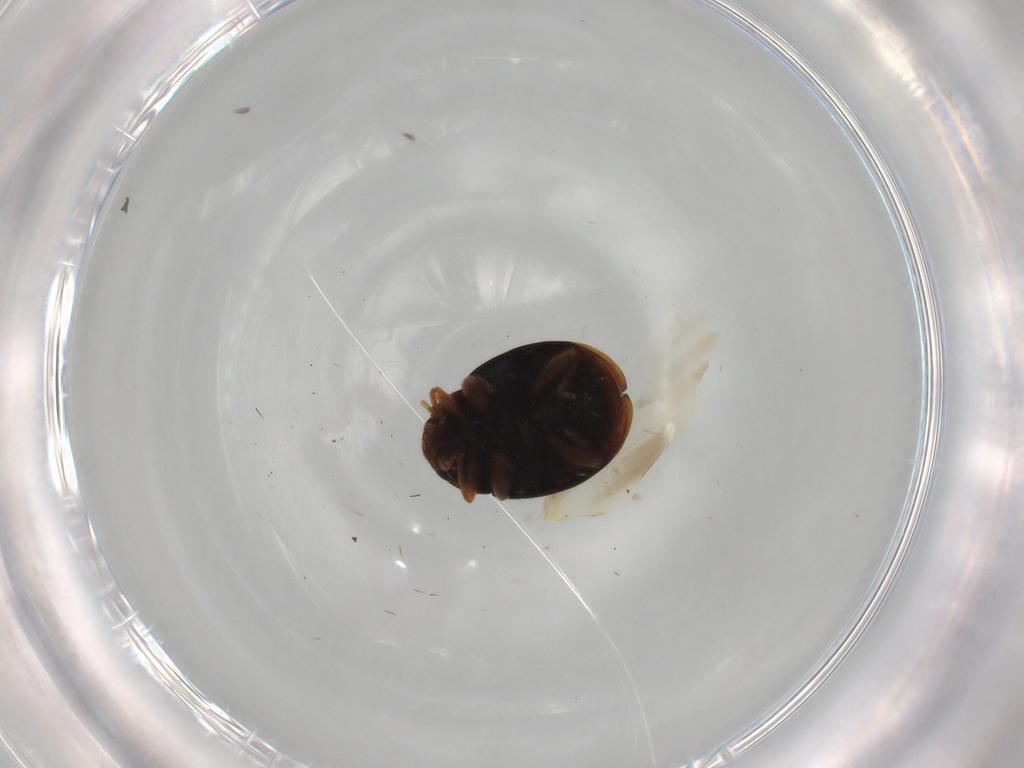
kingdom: Animalia
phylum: Arthropoda
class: Insecta
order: Coleoptera
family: Coccinellidae
